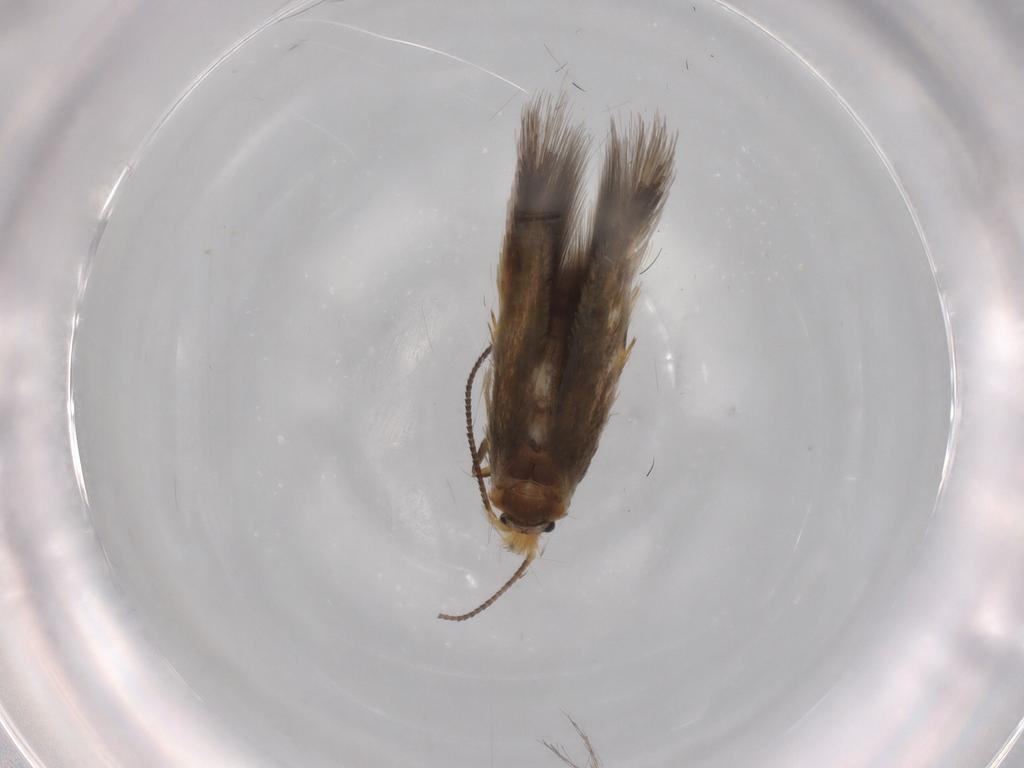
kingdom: Animalia
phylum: Arthropoda
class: Insecta
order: Lepidoptera
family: Nepticulidae
